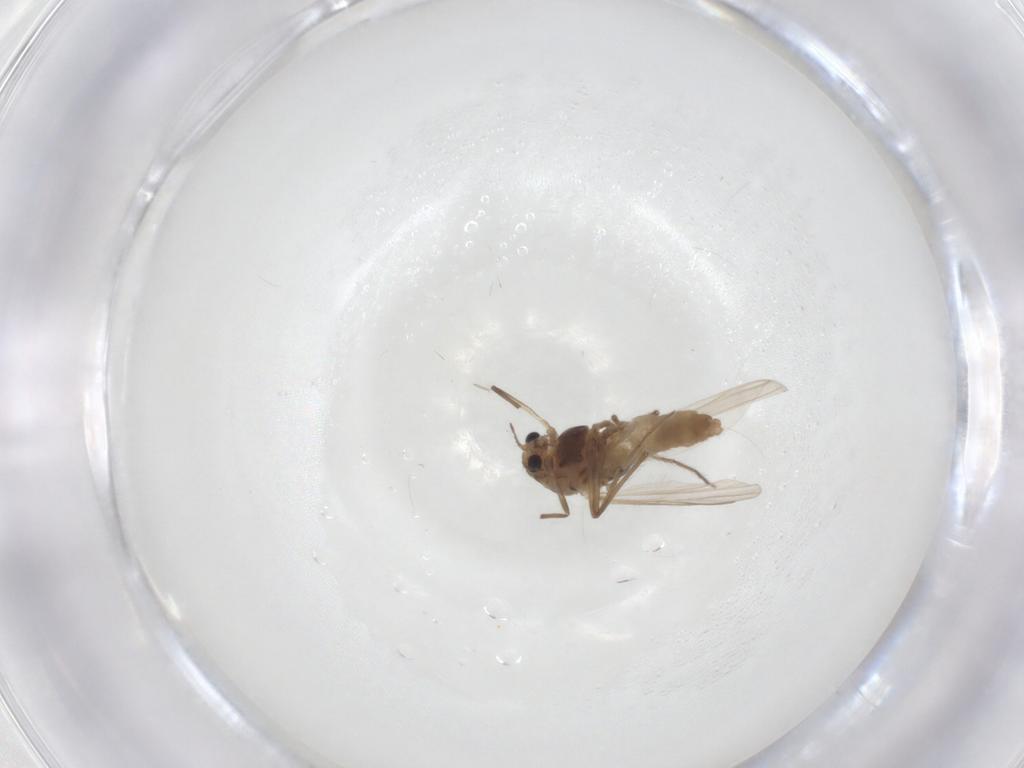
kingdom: Animalia
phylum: Arthropoda
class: Insecta
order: Diptera
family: Chironomidae
